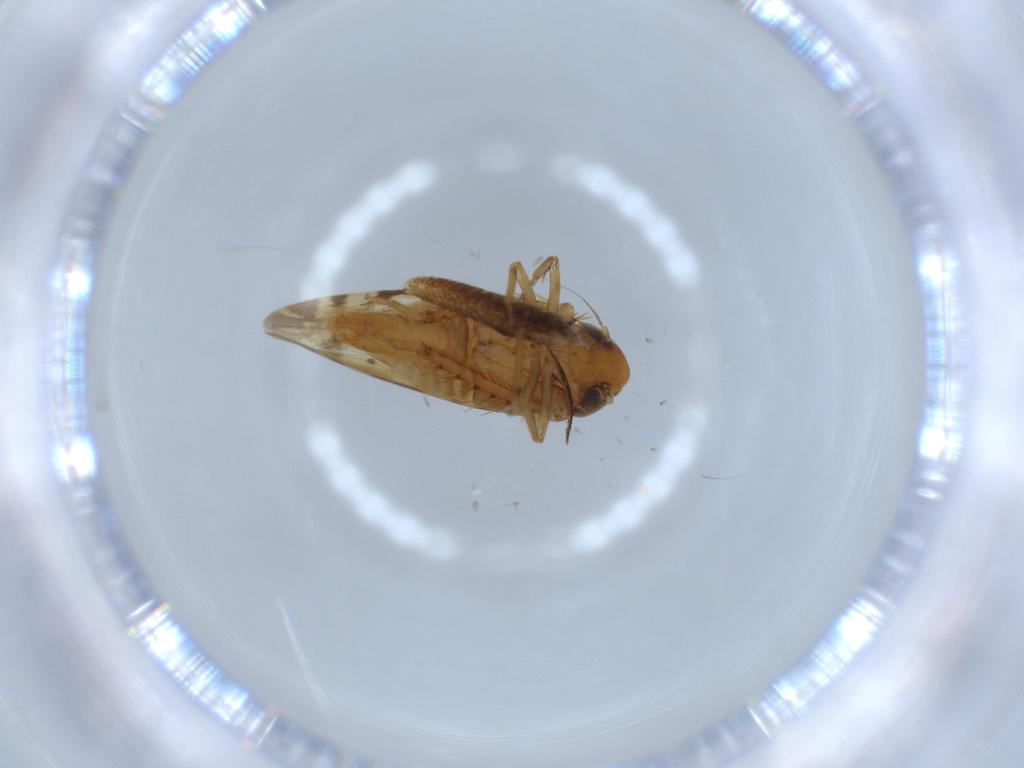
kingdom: Animalia
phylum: Arthropoda
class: Insecta
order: Hemiptera
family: Cicadellidae
